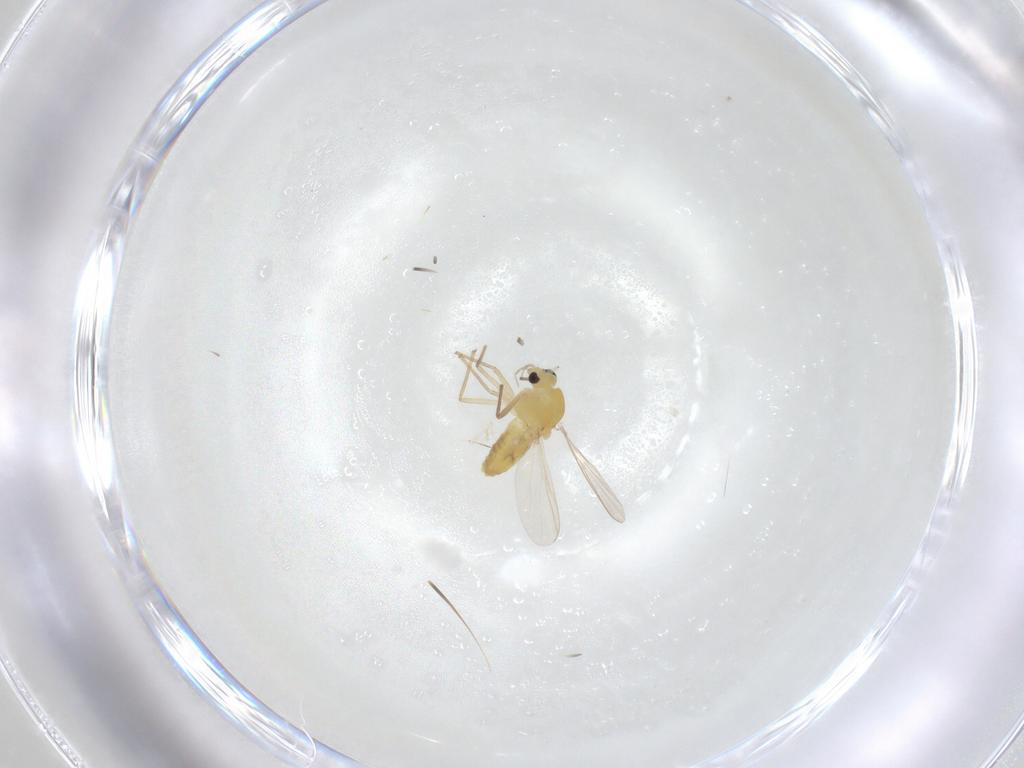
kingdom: Animalia
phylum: Arthropoda
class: Insecta
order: Diptera
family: Chironomidae
